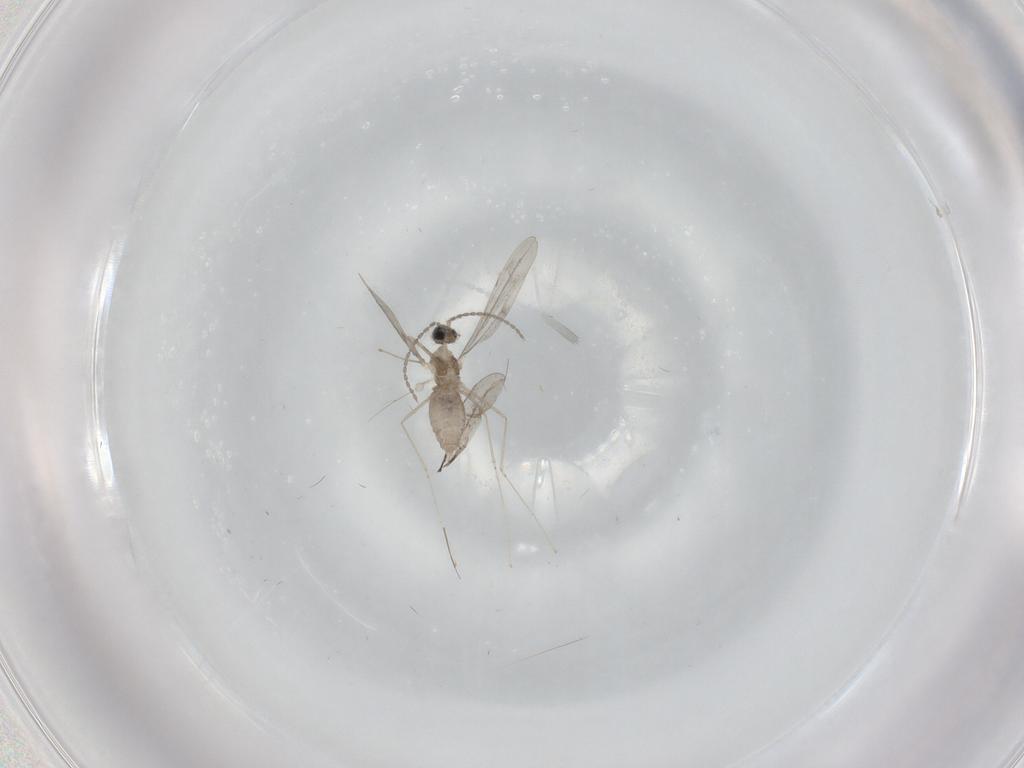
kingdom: Animalia
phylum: Arthropoda
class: Insecta
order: Diptera
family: Cecidomyiidae
